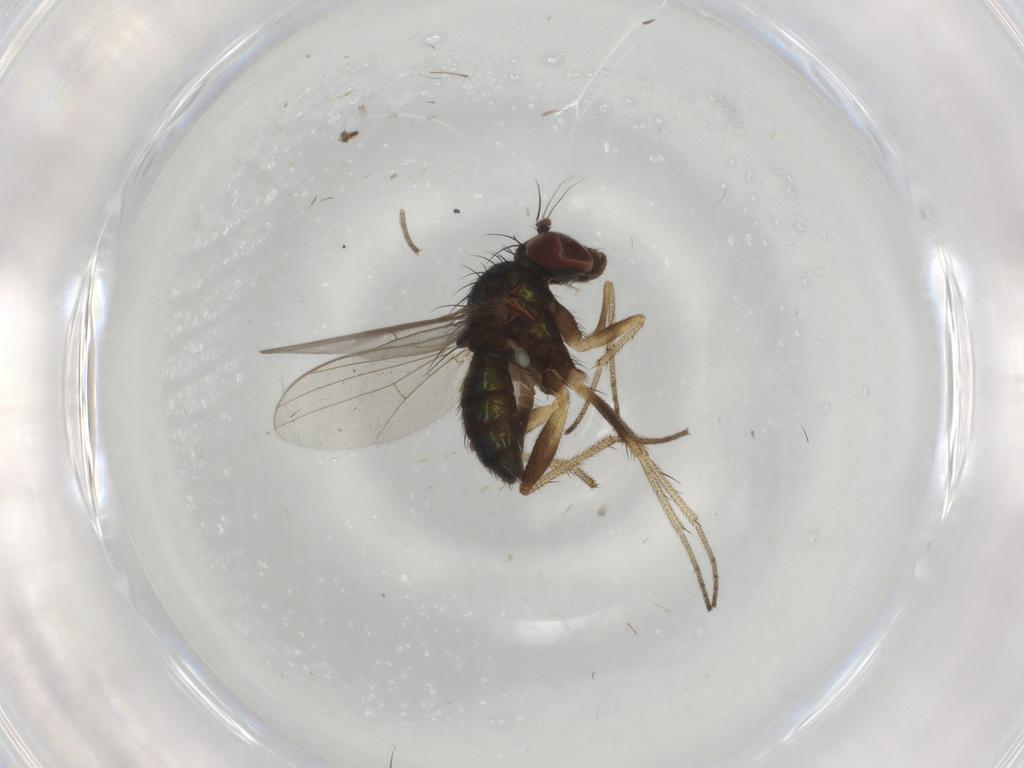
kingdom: Animalia
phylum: Arthropoda
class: Insecta
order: Diptera
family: Cecidomyiidae
